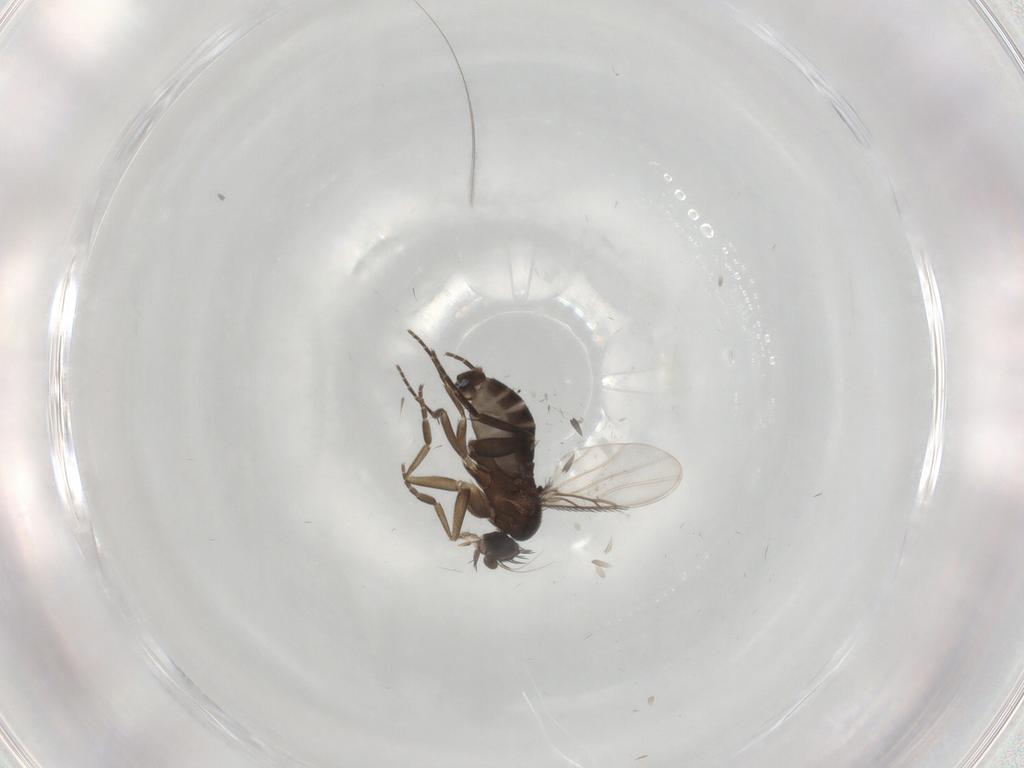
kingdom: Animalia
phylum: Arthropoda
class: Insecta
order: Diptera
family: Phoridae
